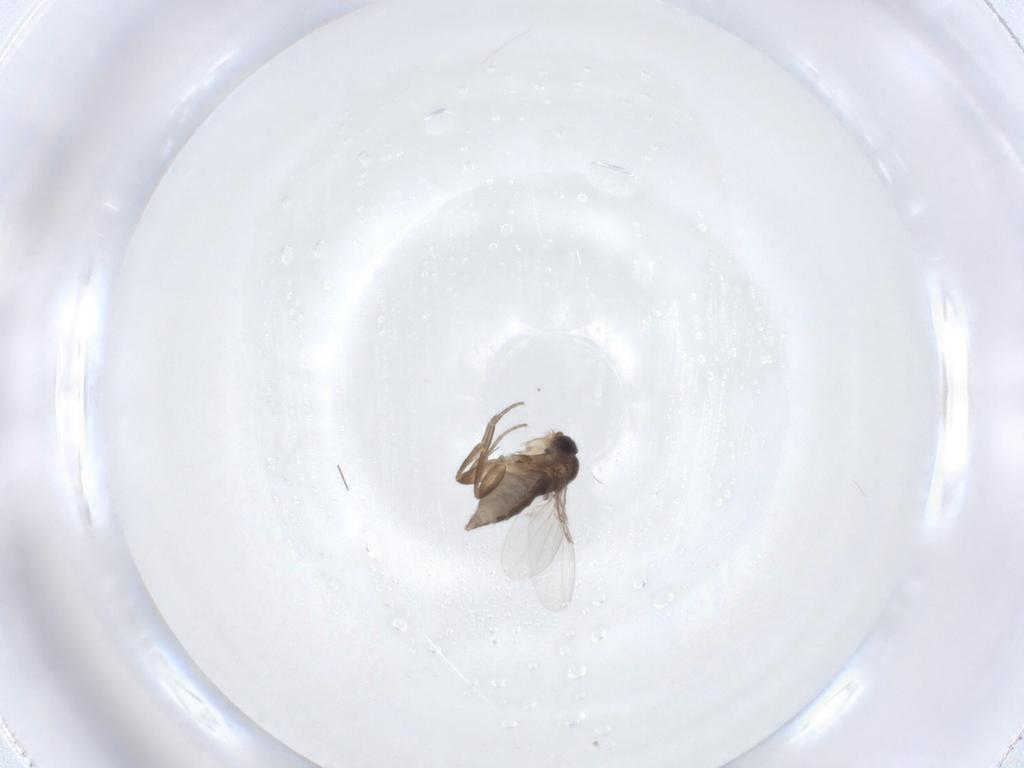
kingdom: Animalia
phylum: Arthropoda
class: Insecta
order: Diptera
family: Phoridae
